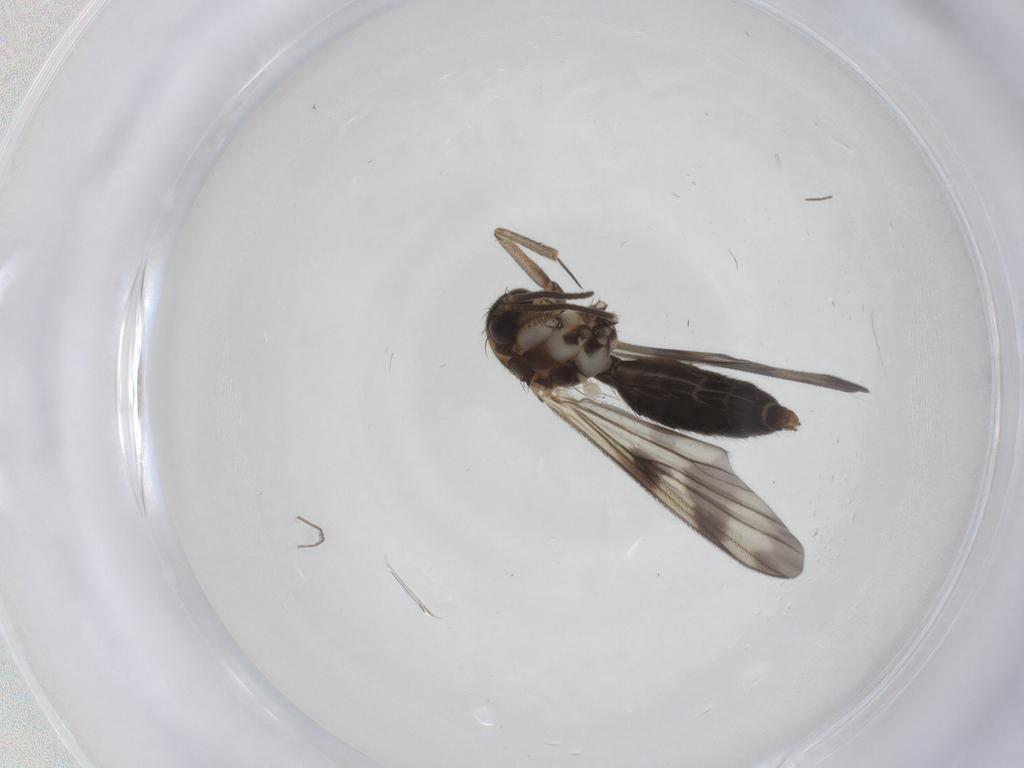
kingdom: Animalia
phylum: Arthropoda
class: Insecta
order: Diptera
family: Mycetophilidae
